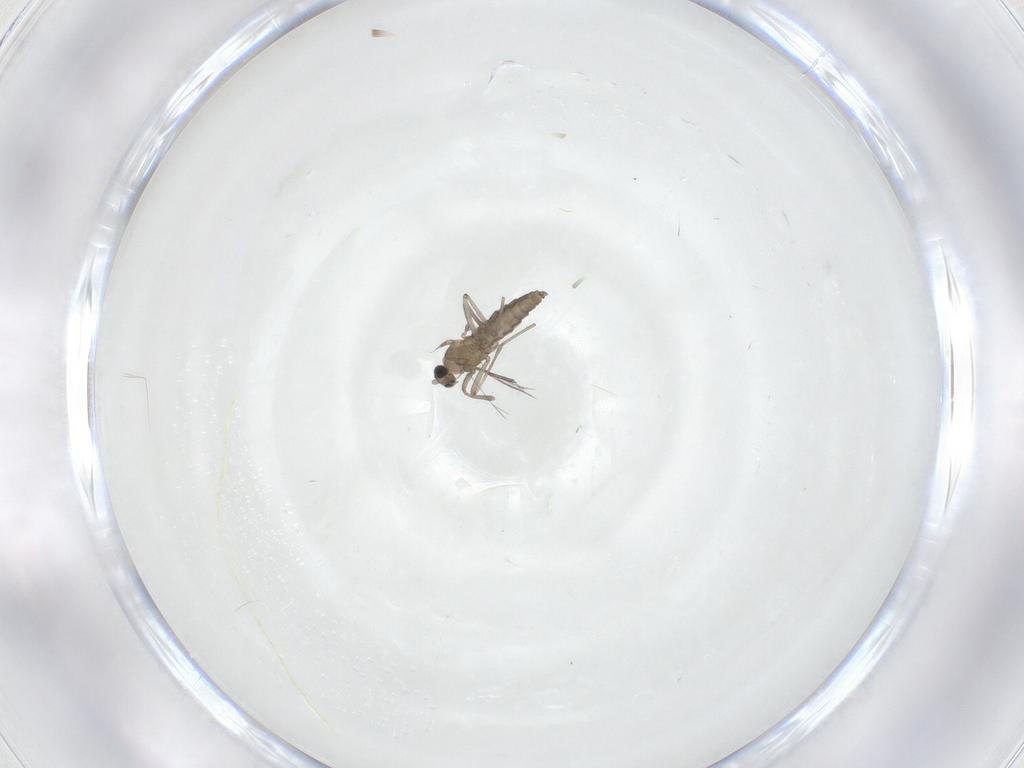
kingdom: Animalia
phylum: Arthropoda
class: Insecta
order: Diptera
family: Cecidomyiidae
